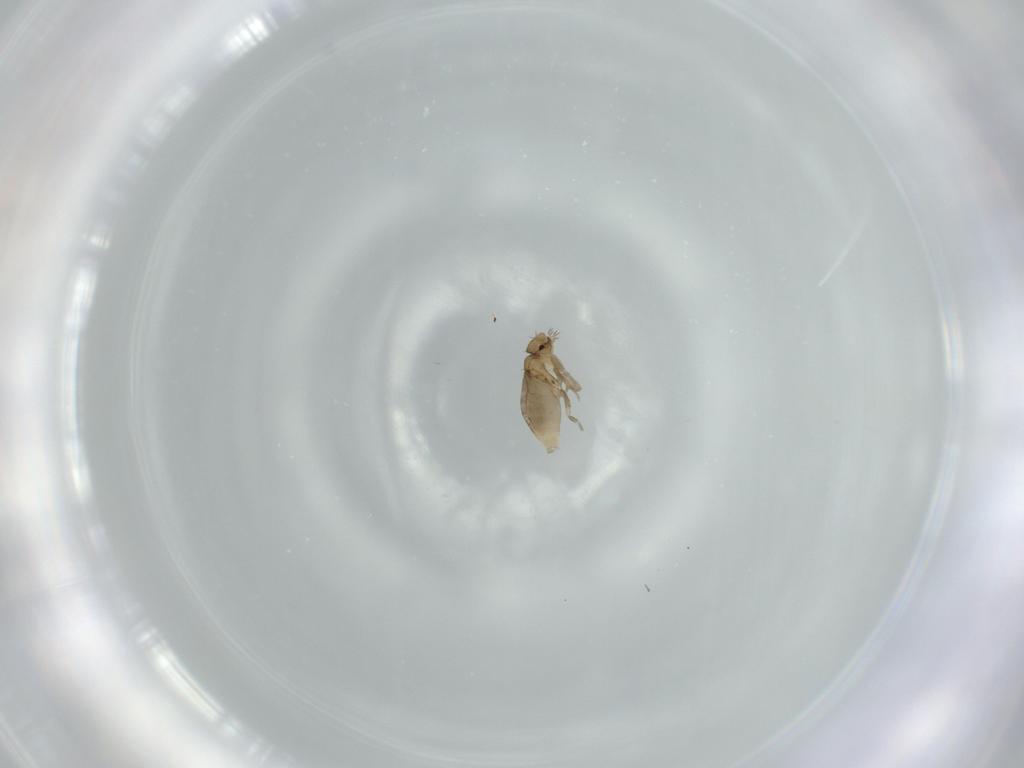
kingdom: Animalia
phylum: Arthropoda
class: Insecta
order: Diptera
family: Phoridae
